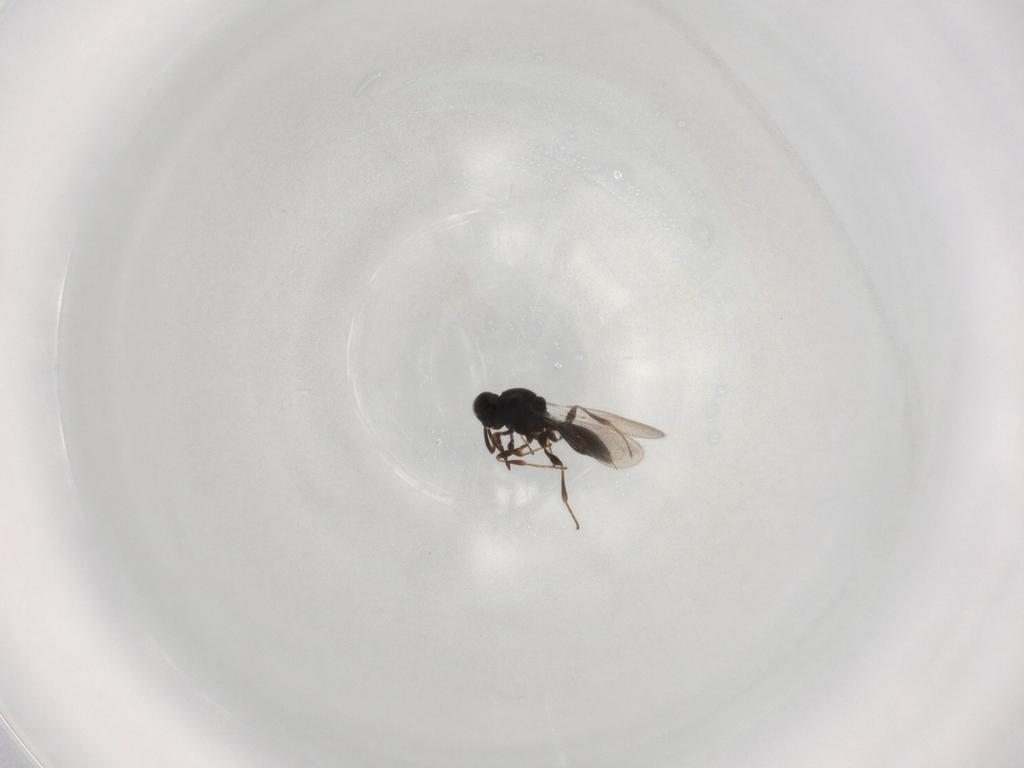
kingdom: Animalia
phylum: Arthropoda
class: Insecta
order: Hymenoptera
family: Platygastridae
